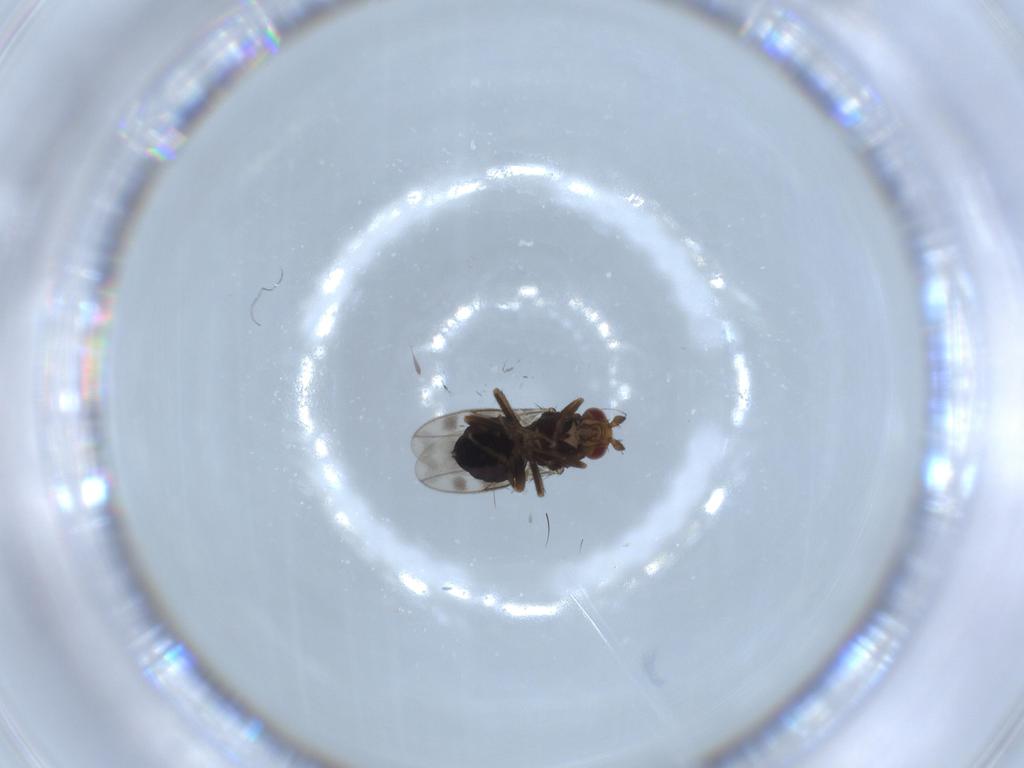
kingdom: Animalia
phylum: Arthropoda
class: Insecta
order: Diptera
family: Sphaeroceridae
